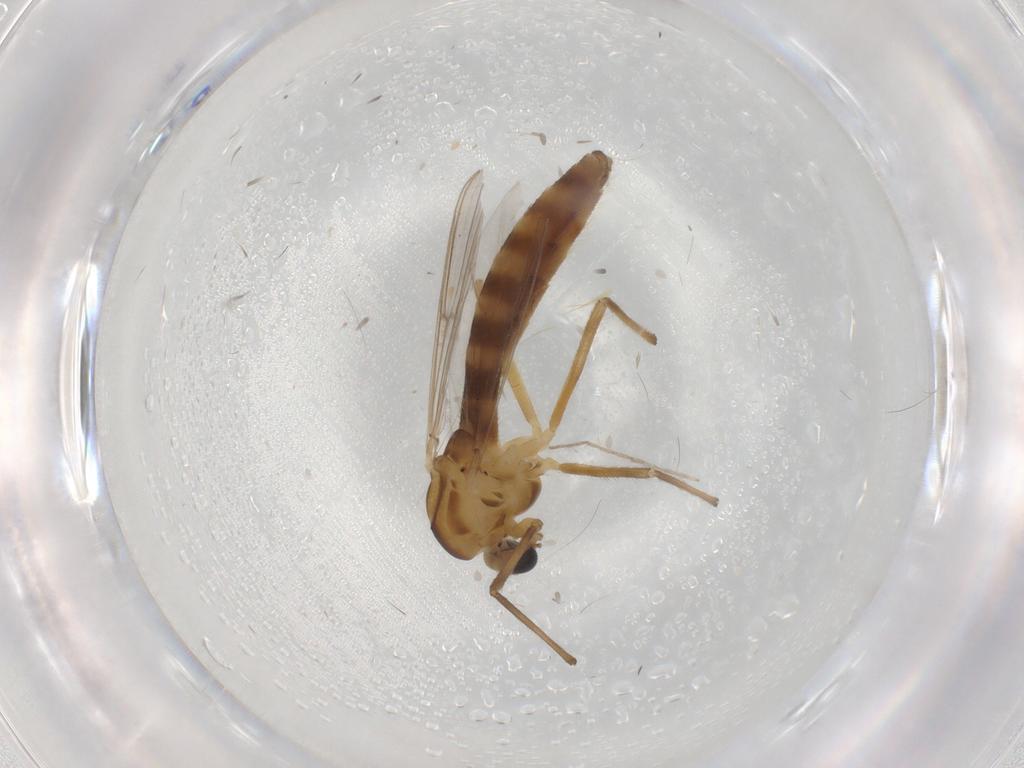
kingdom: Animalia
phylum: Arthropoda
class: Insecta
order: Diptera
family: Chironomidae
